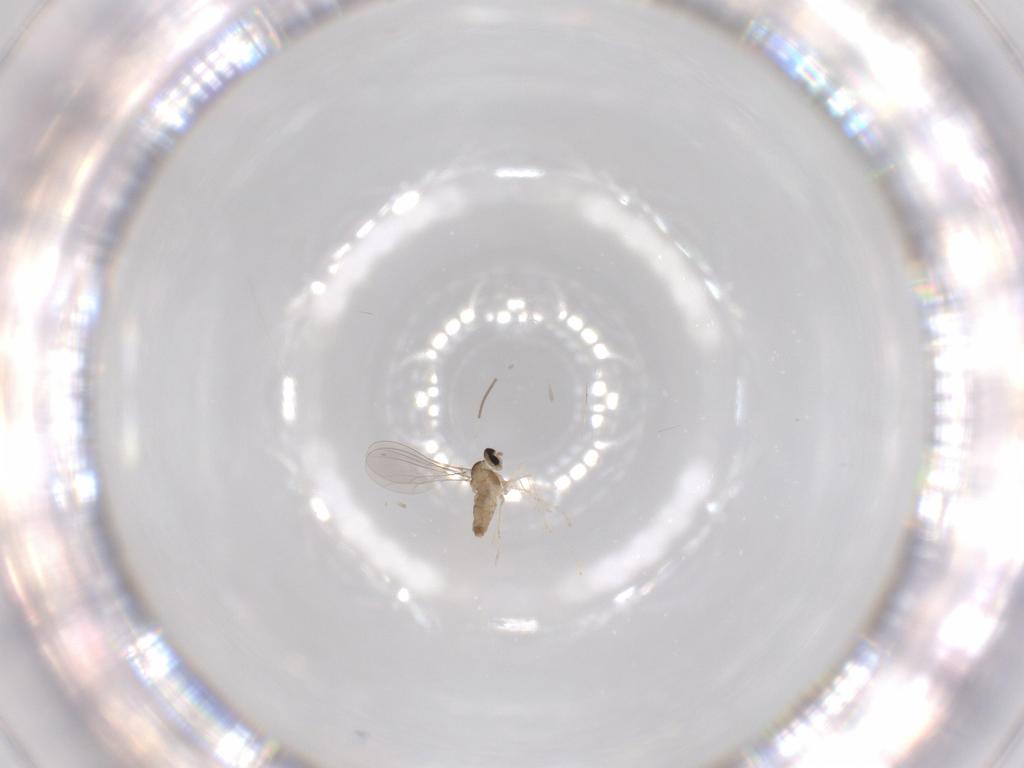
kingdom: Animalia
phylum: Arthropoda
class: Insecta
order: Diptera
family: Cecidomyiidae
